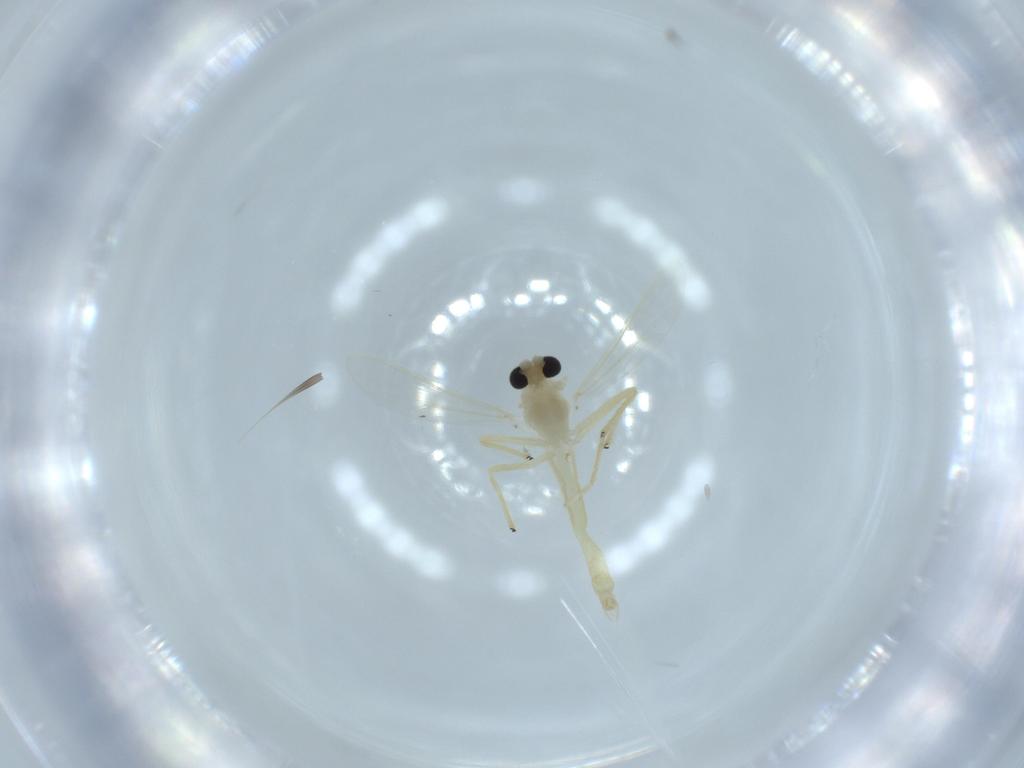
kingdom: Animalia
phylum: Arthropoda
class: Insecta
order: Diptera
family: Chironomidae
